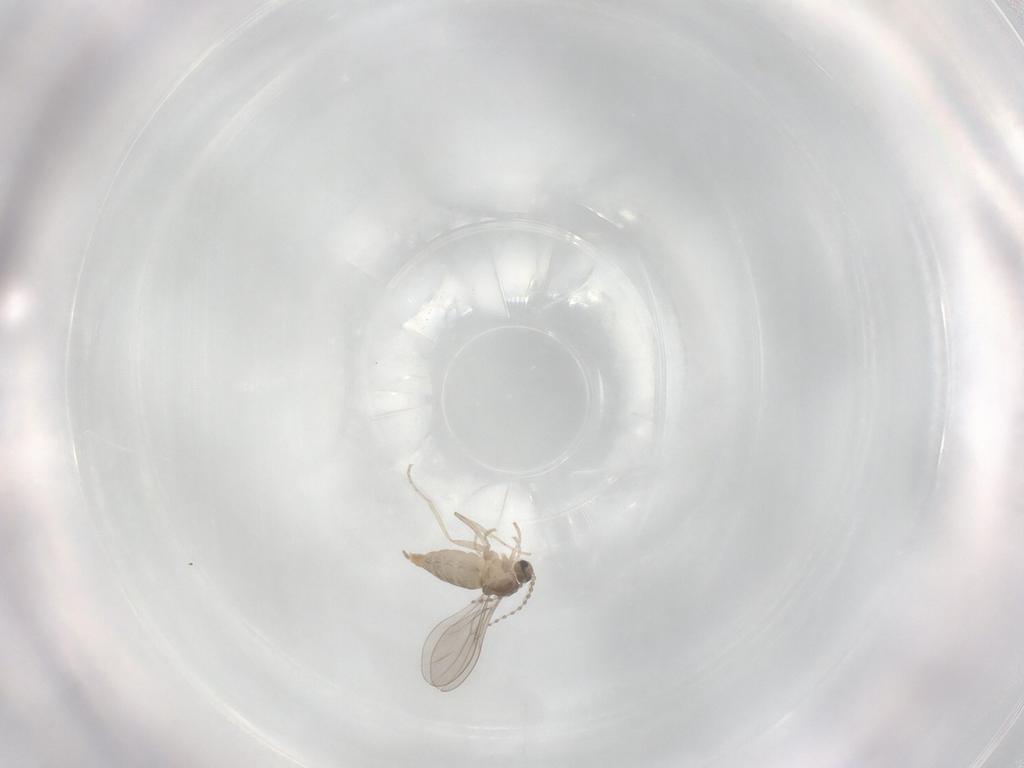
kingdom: Animalia
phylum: Arthropoda
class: Insecta
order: Diptera
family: Cecidomyiidae
